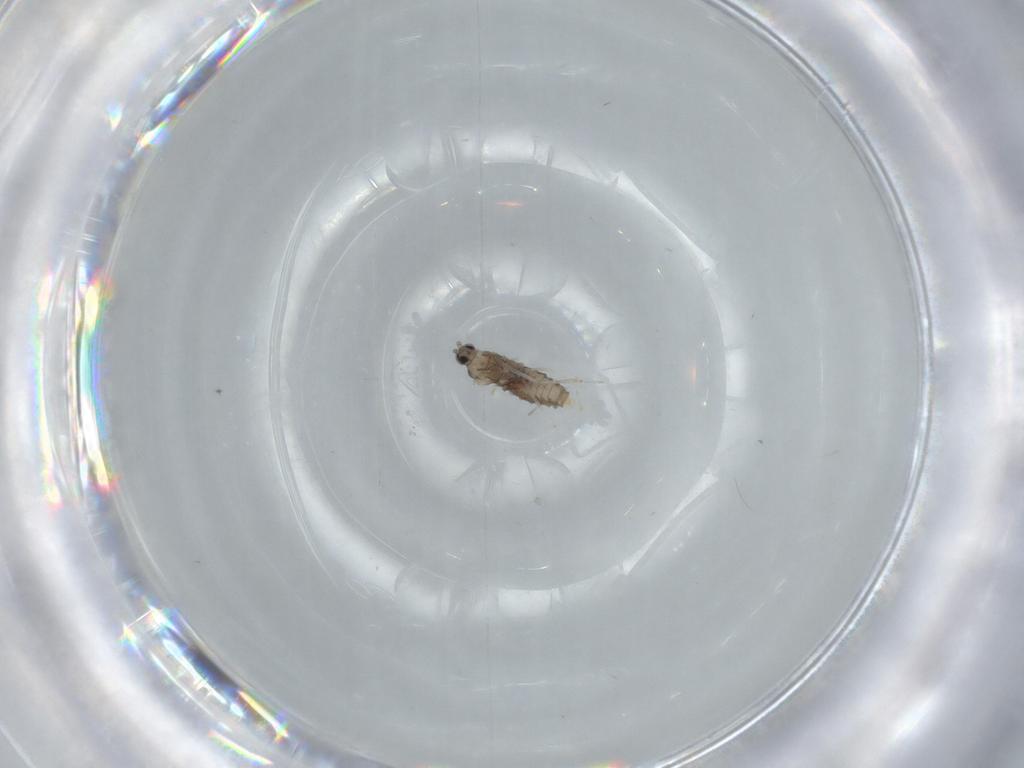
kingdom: Animalia
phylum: Arthropoda
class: Insecta
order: Diptera
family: Cecidomyiidae
